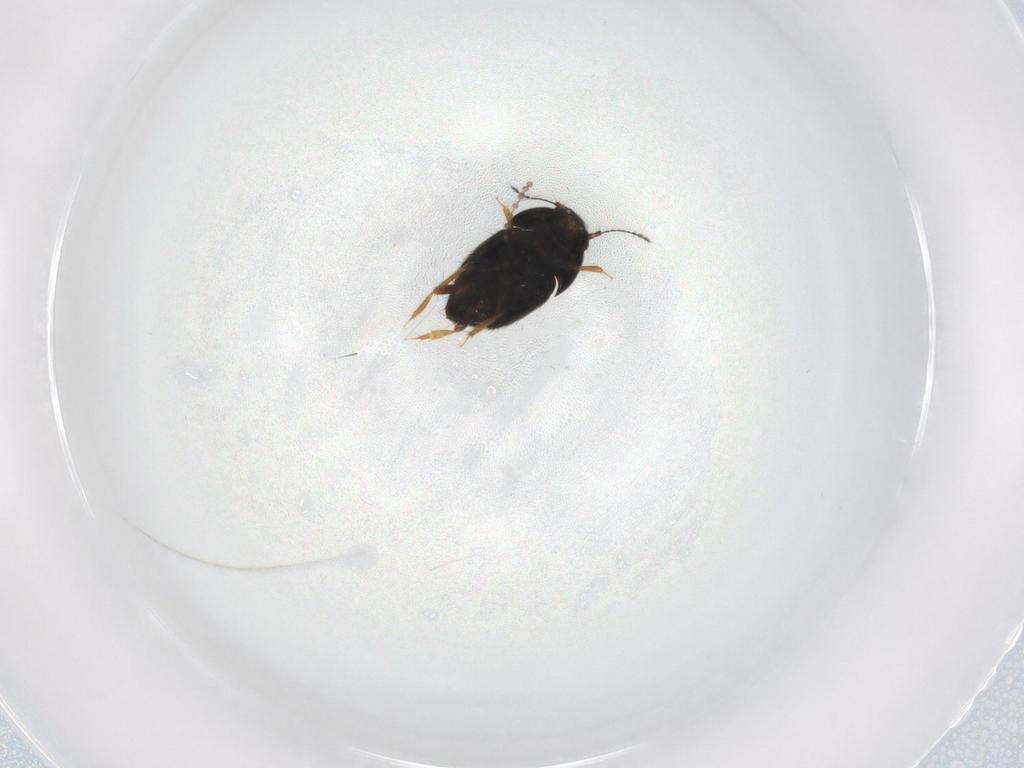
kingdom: Animalia
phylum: Arthropoda
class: Insecta
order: Coleoptera
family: Ptiliidae
